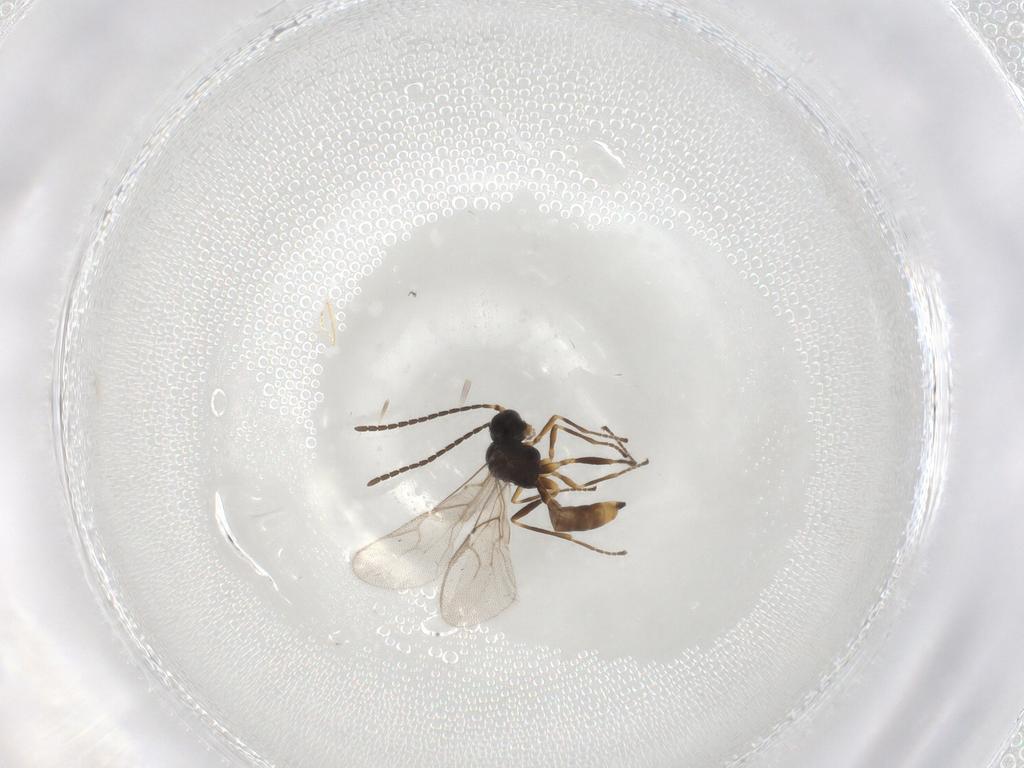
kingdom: Animalia
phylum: Arthropoda
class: Insecta
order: Hymenoptera
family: Braconidae
